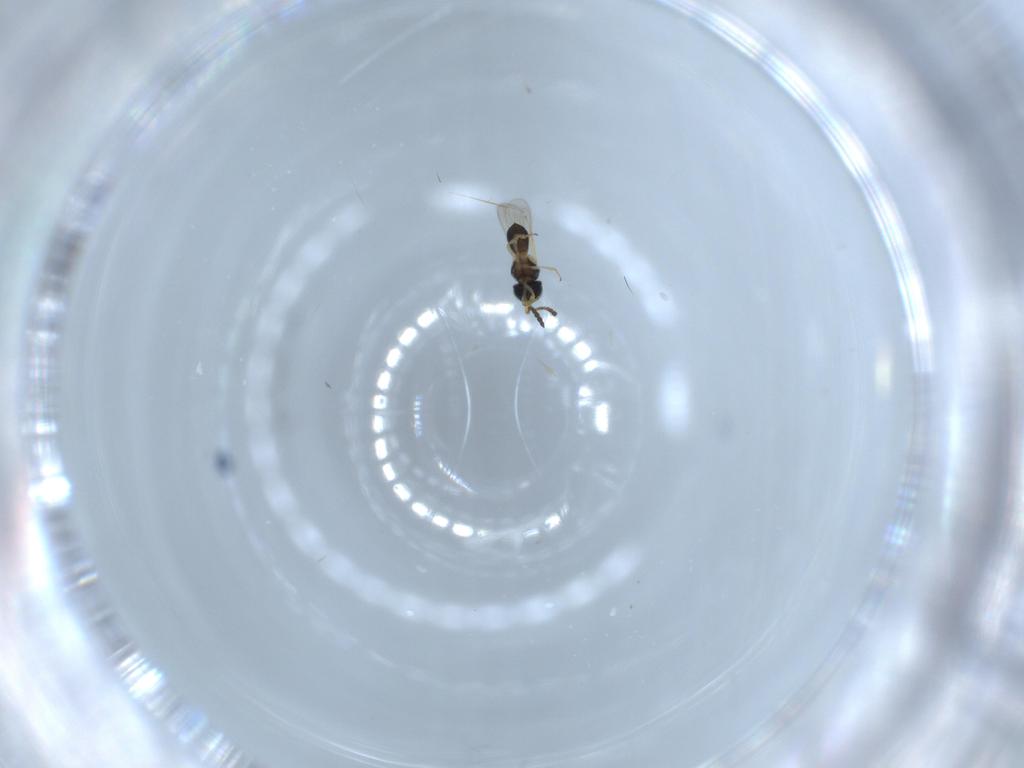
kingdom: Animalia
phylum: Arthropoda
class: Insecta
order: Hymenoptera
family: Scelionidae
